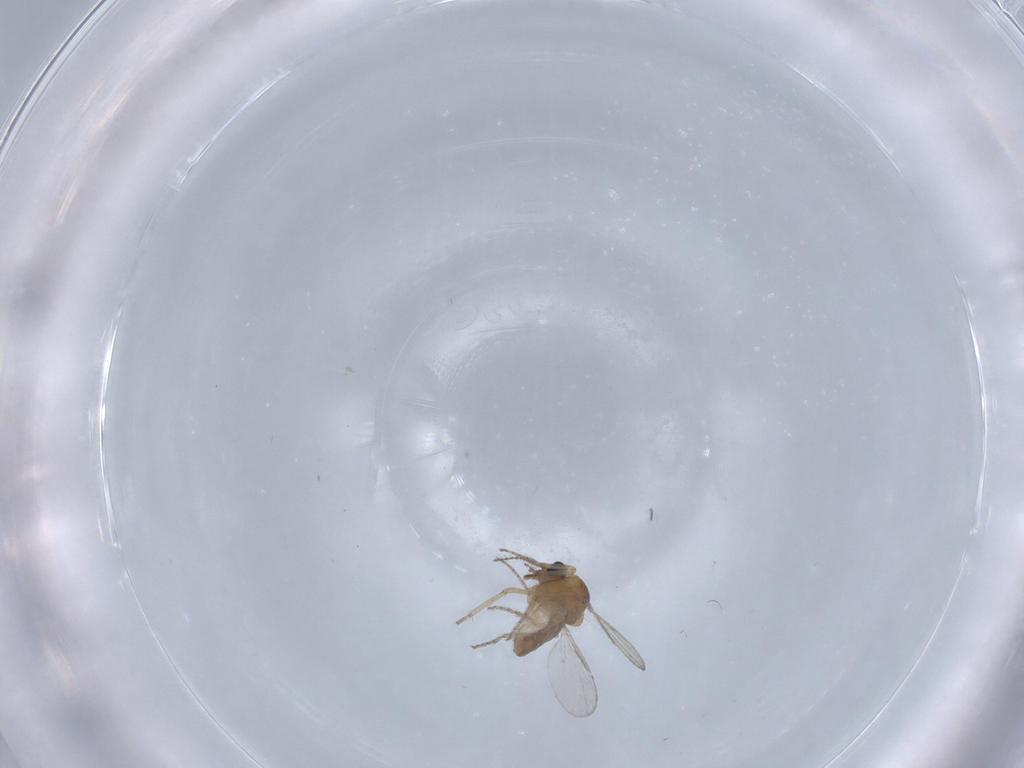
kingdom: Animalia
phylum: Arthropoda
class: Insecta
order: Diptera
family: Ceratopogonidae
